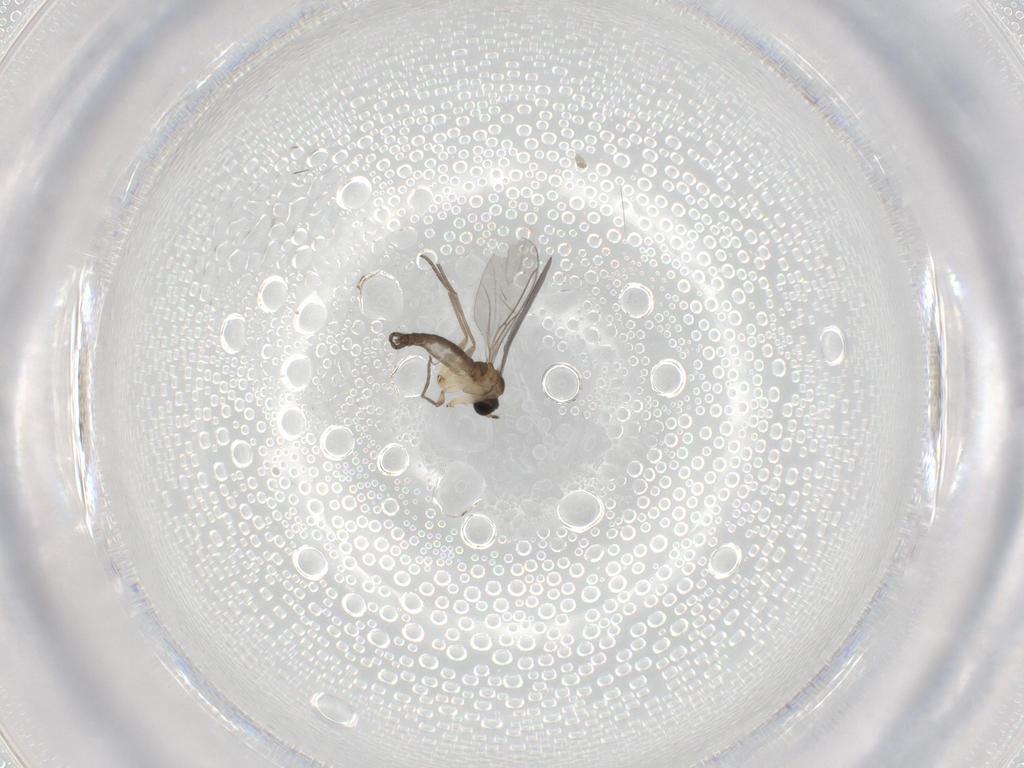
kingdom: Animalia
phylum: Arthropoda
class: Insecta
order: Diptera
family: Sciaridae
